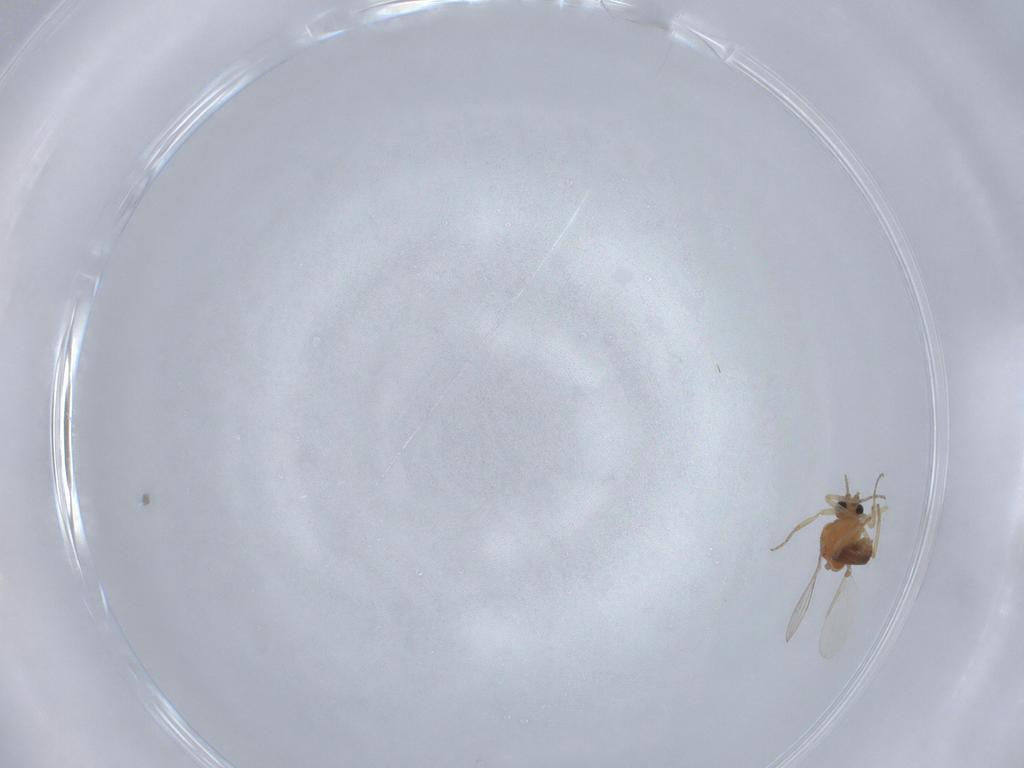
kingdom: Animalia
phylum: Arthropoda
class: Insecta
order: Diptera
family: Ceratopogonidae
